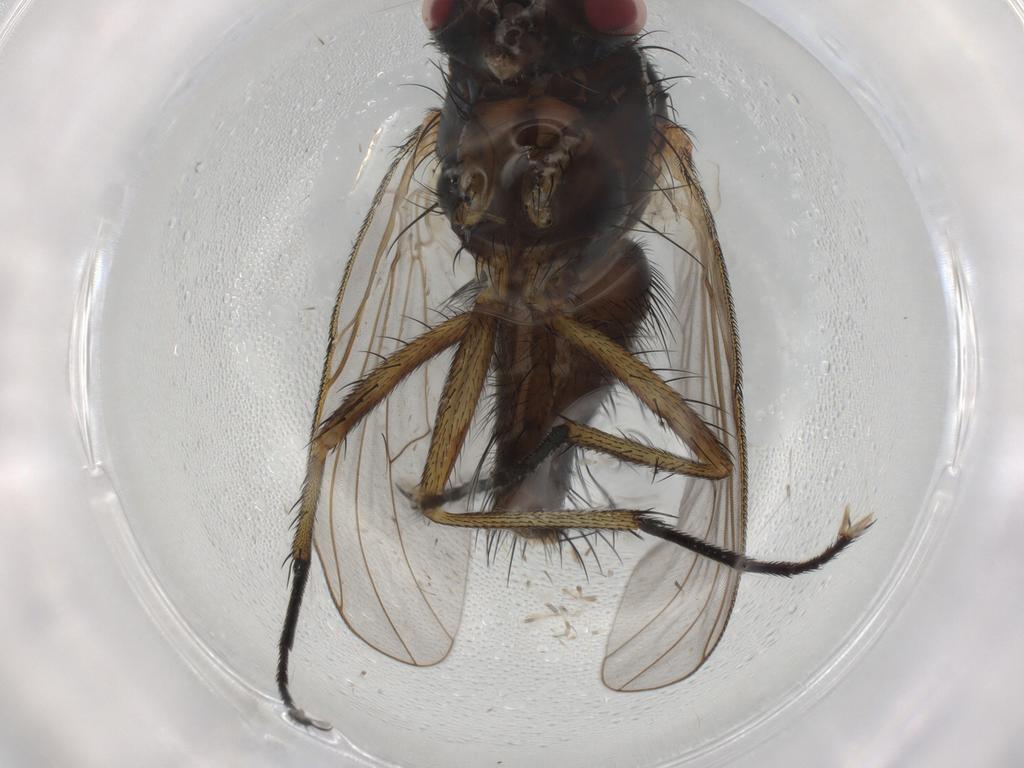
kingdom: Animalia
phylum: Arthropoda
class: Insecta
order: Diptera
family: Muscidae
